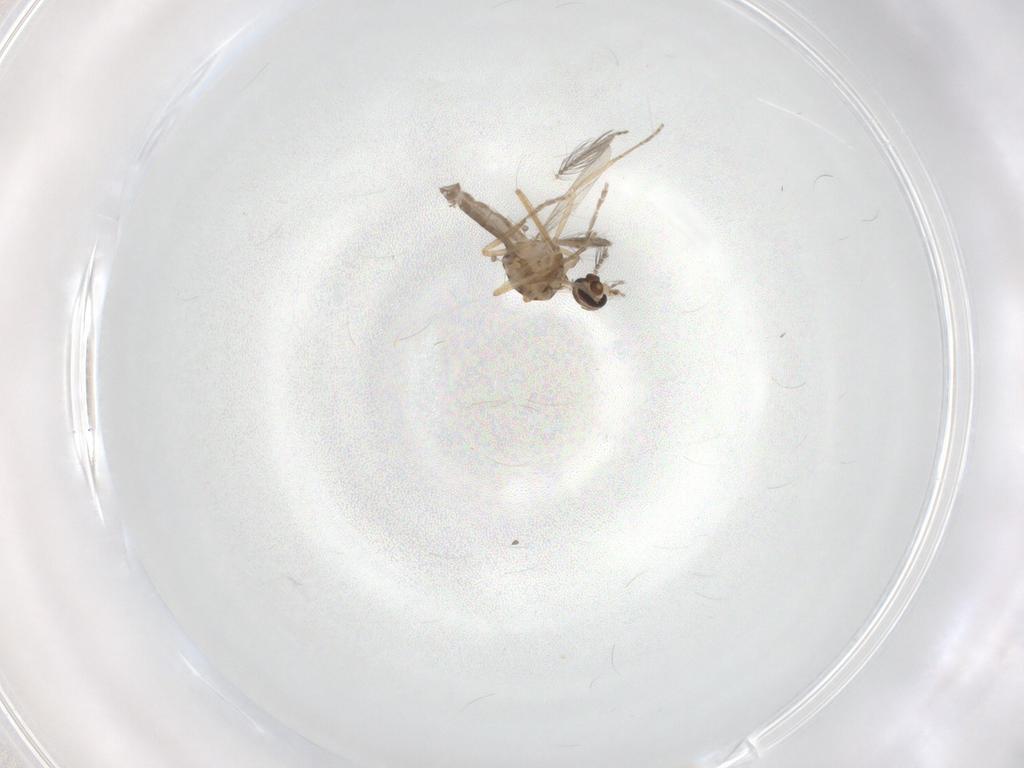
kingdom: Animalia
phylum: Arthropoda
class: Insecta
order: Diptera
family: Ceratopogonidae
